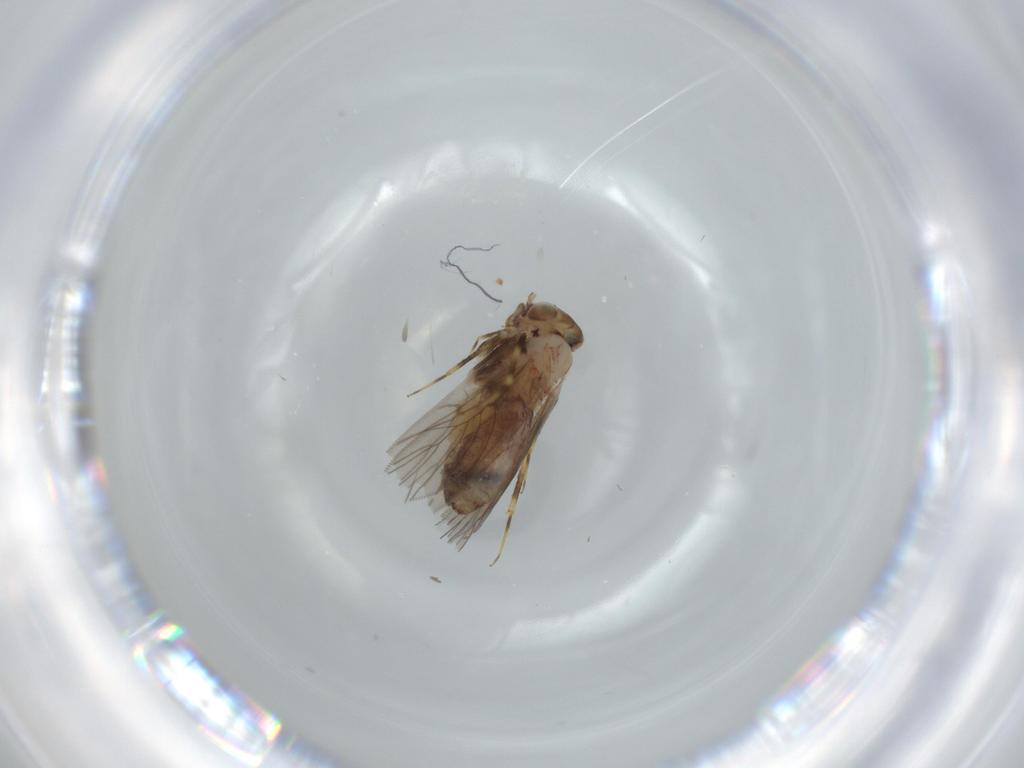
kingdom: Animalia
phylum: Arthropoda
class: Insecta
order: Psocodea
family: Lepidopsocidae
